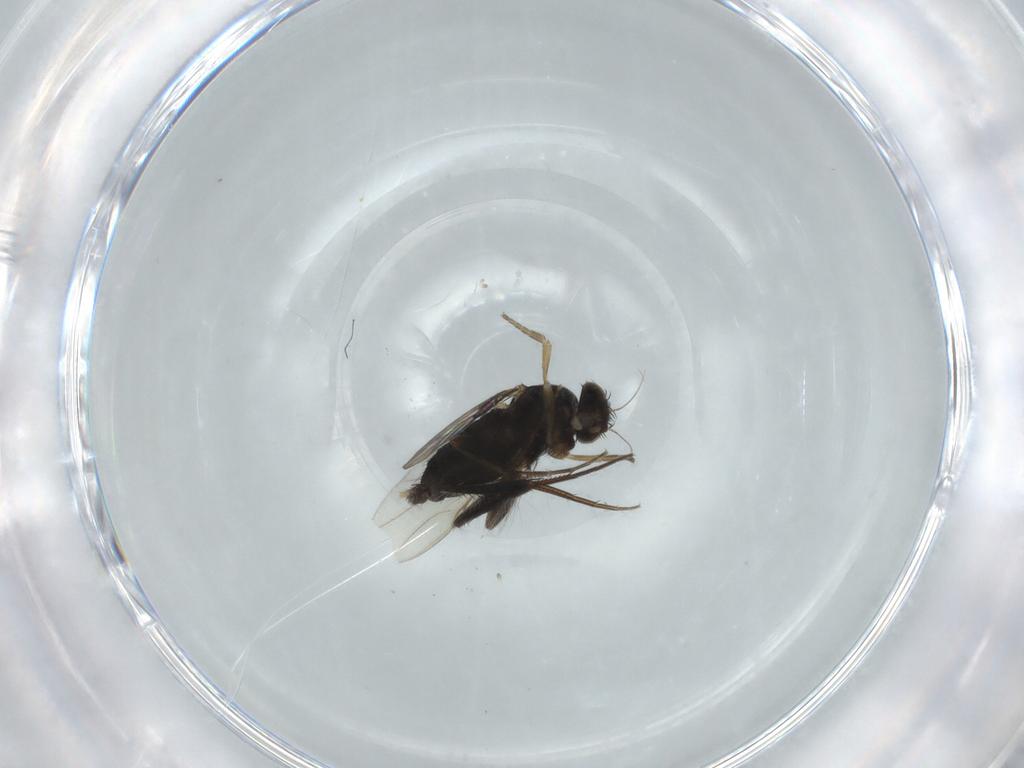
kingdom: Animalia
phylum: Arthropoda
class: Insecta
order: Diptera
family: Phoridae
